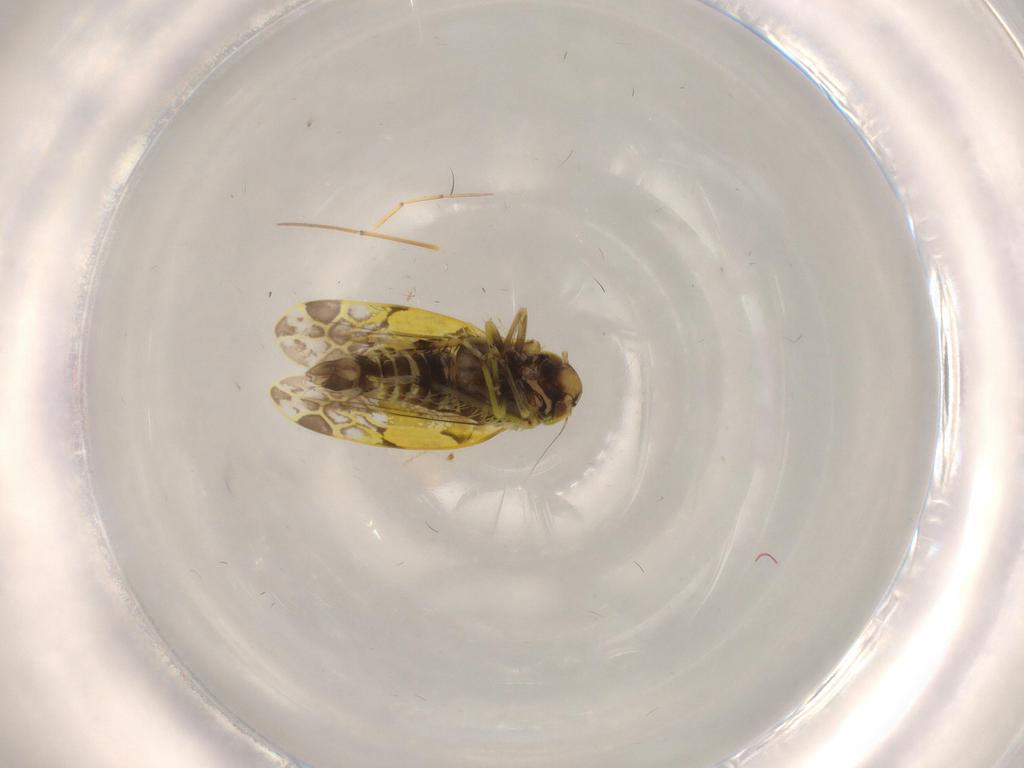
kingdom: Animalia
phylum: Arthropoda
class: Insecta
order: Hemiptera
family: Cicadellidae
